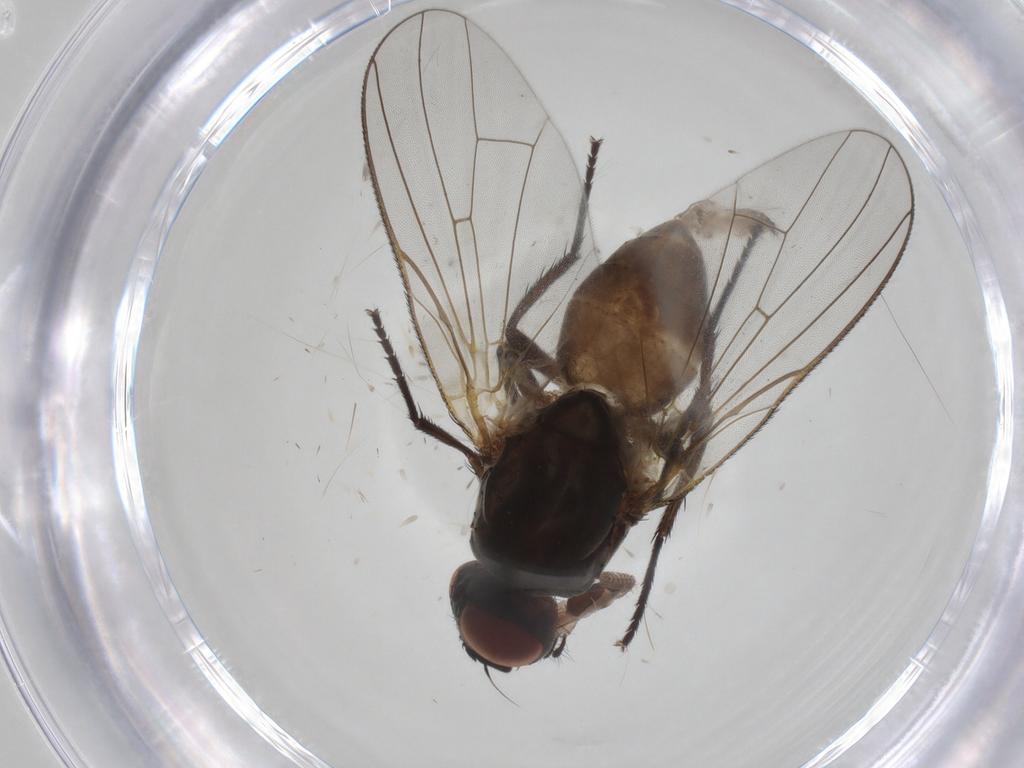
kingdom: Animalia
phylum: Arthropoda
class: Insecta
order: Diptera
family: Anthomyiidae
